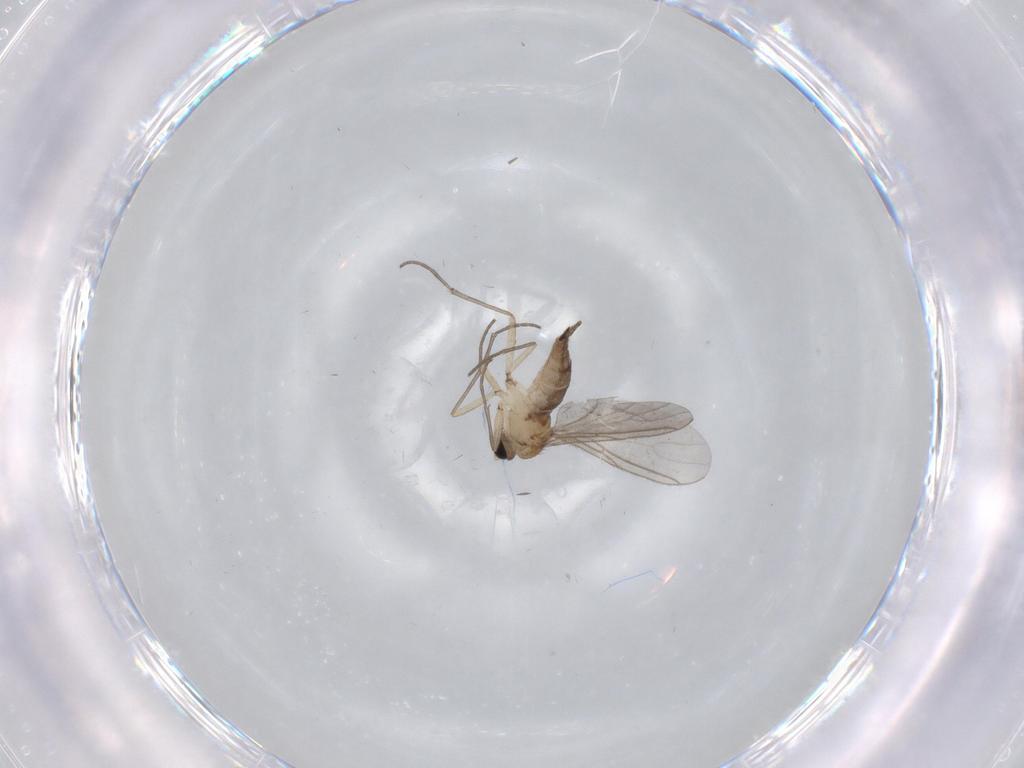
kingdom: Animalia
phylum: Arthropoda
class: Insecta
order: Diptera
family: Sciaridae
